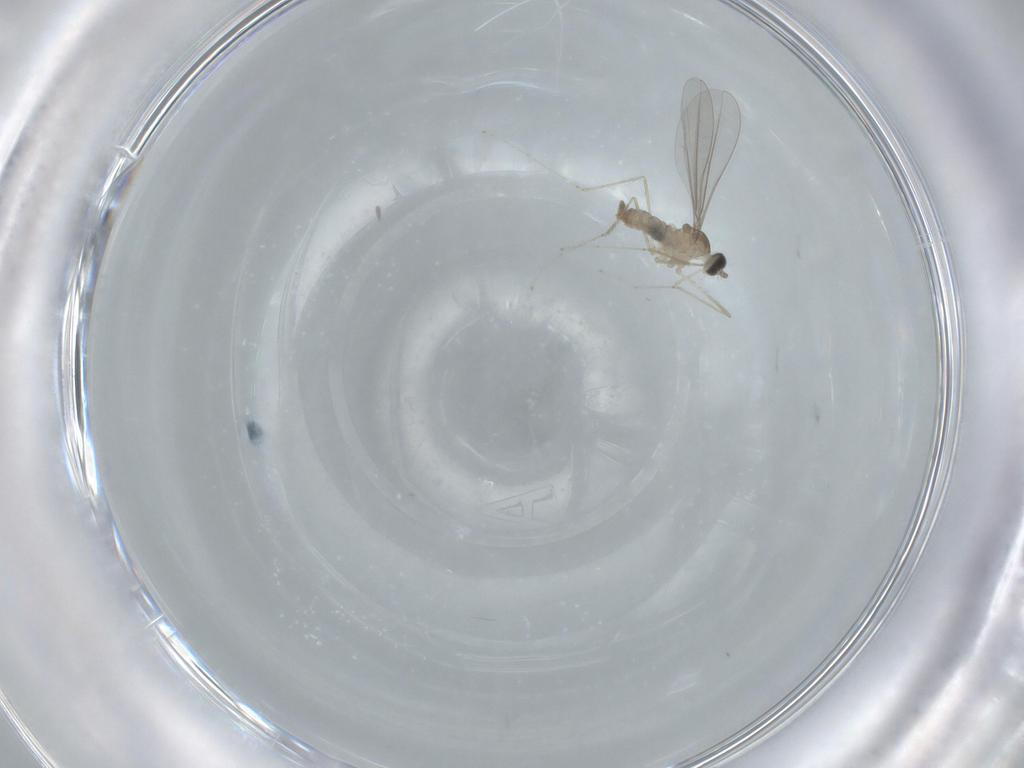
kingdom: Animalia
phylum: Arthropoda
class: Insecta
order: Diptera
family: Cecidomyiidae
